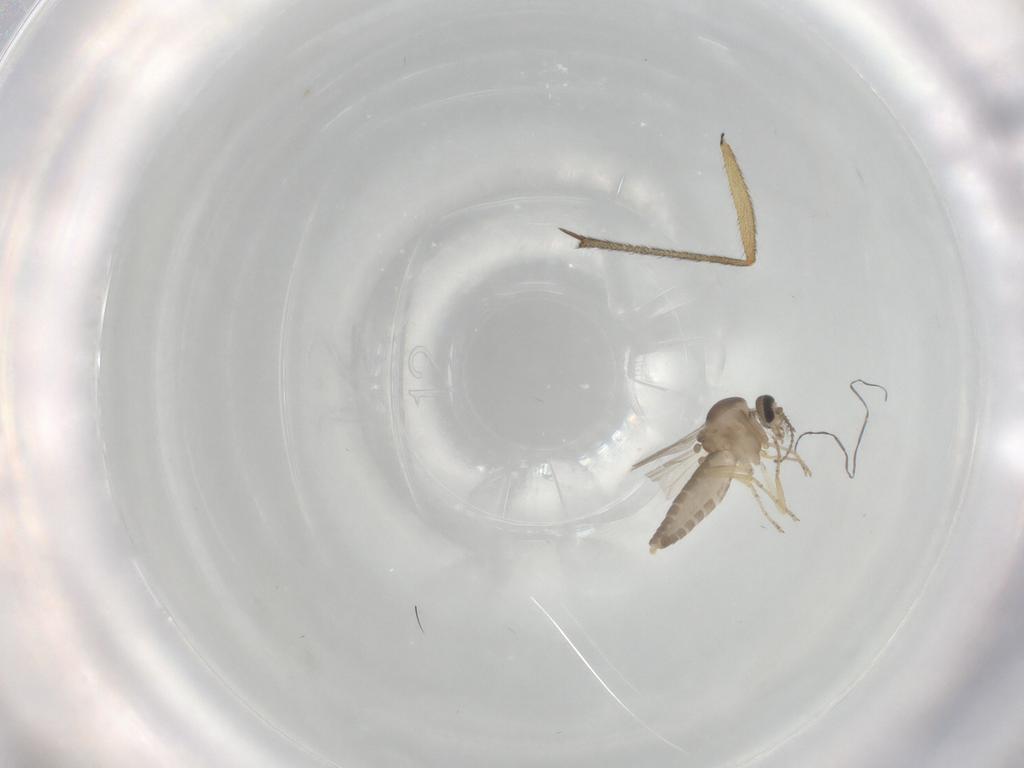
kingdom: Animalia
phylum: Arthropoda
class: Insecta
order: Diptera
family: Ceratopogonidae
